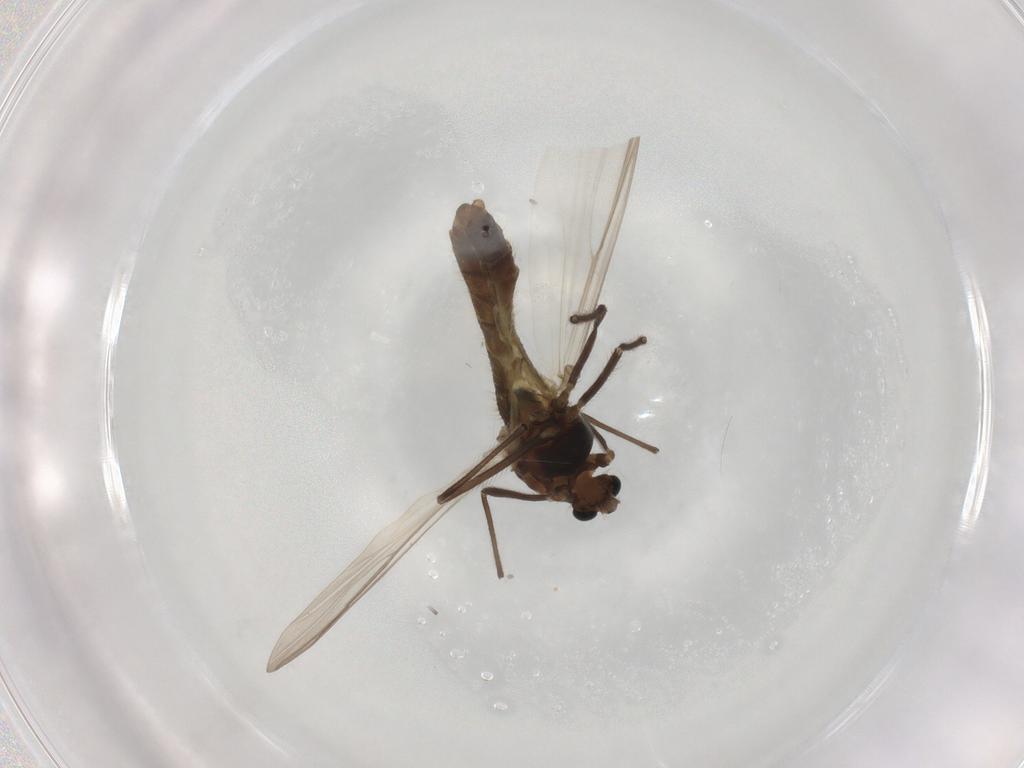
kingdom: Animalia
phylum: Arthropoda
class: Insecta
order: Diptera
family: Chironomidae
